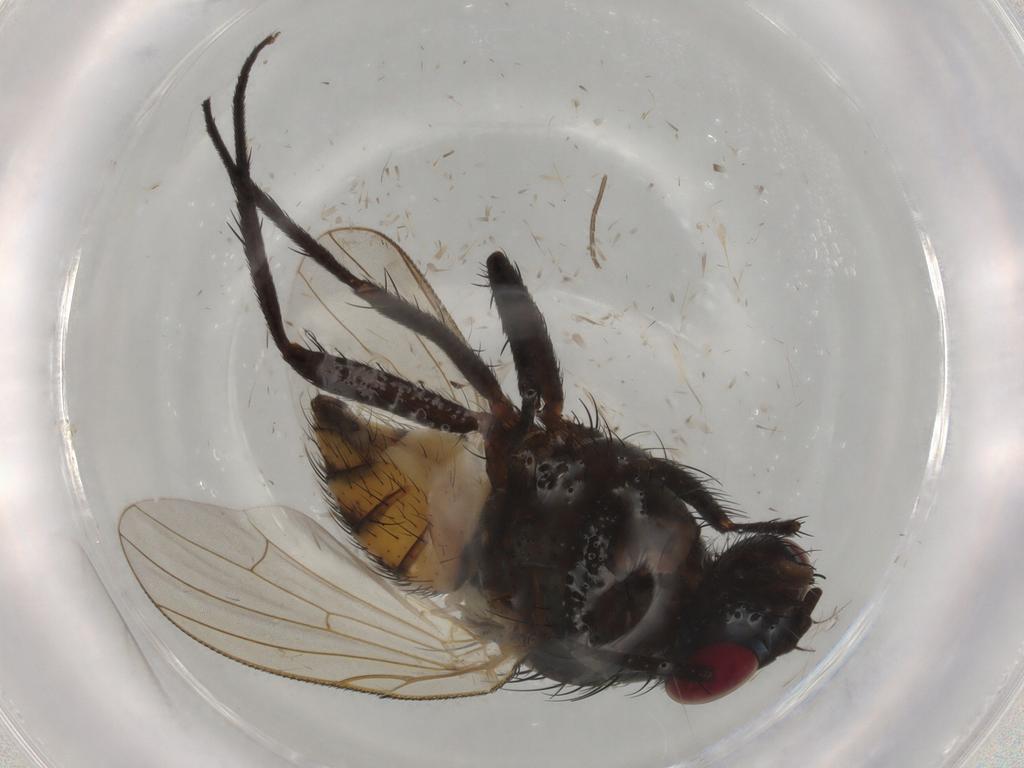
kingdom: Animalia
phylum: Arthropoda
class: Insecta
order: Diptera
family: Anthomyiidae
